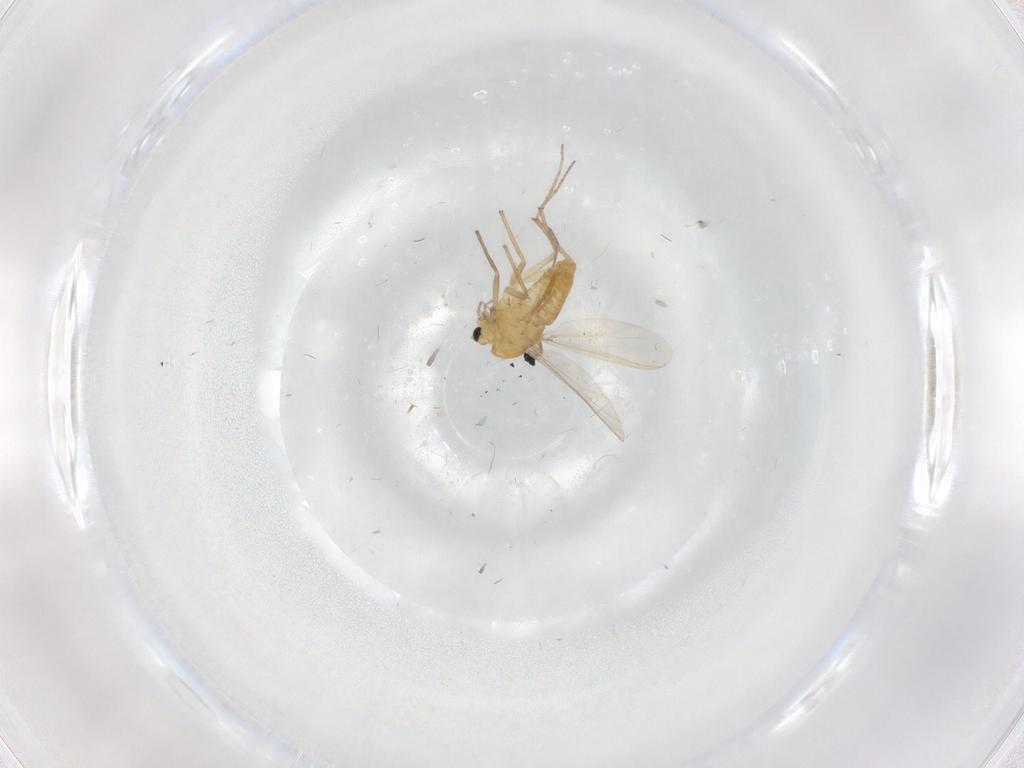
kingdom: Animalia
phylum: Arthropoda
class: Insecta
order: Diptera
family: Chironomidae
